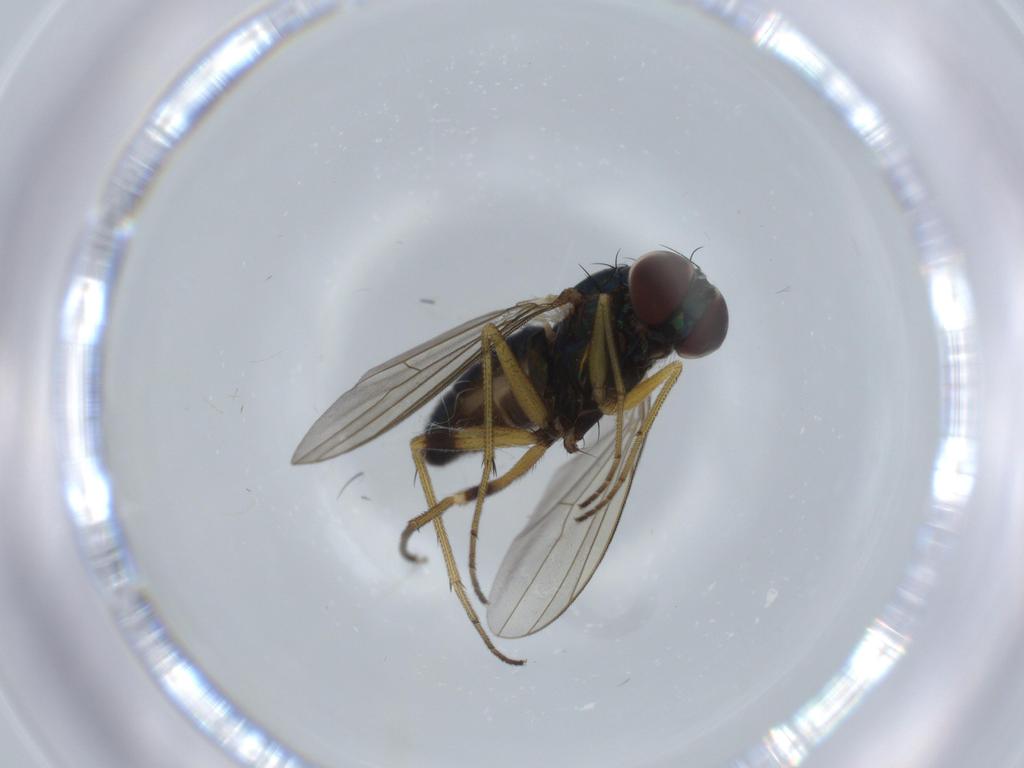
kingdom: Animalia
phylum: Arthropoda
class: Insecta
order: Diptera
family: Dolichopodidae
